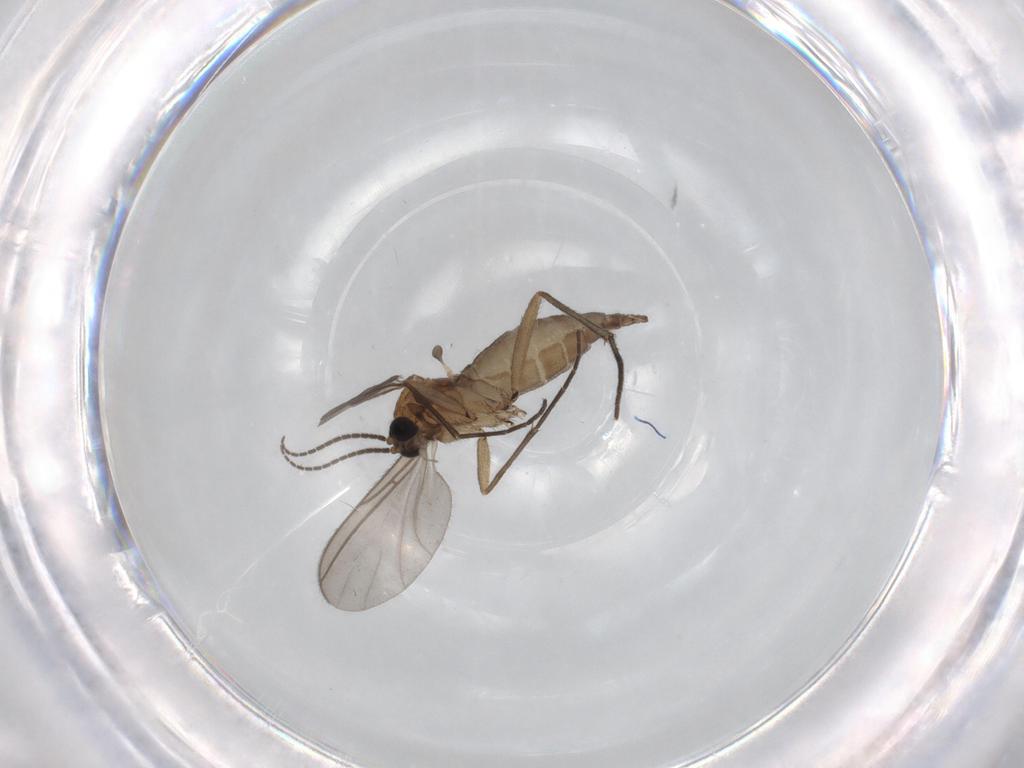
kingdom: Animalia
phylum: Arthropoda
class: Insecta
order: Diptera
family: Sciaridae
